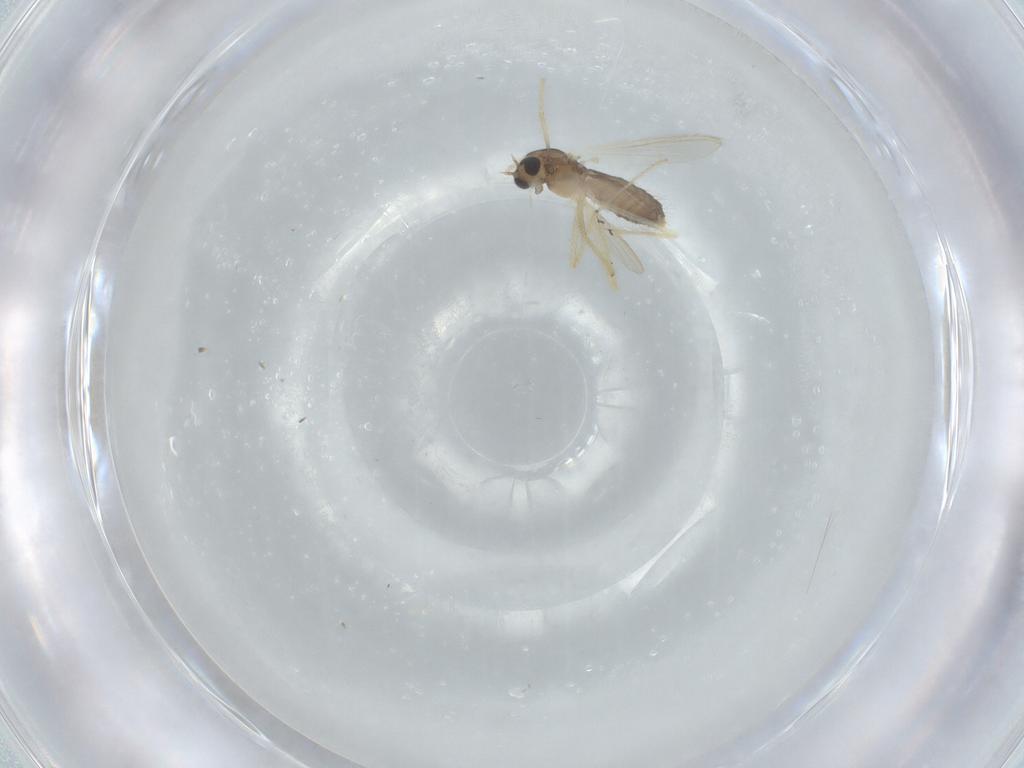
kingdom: Animalia
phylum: Arthropoda
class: Insecta
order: Diptera
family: Chironomidae
